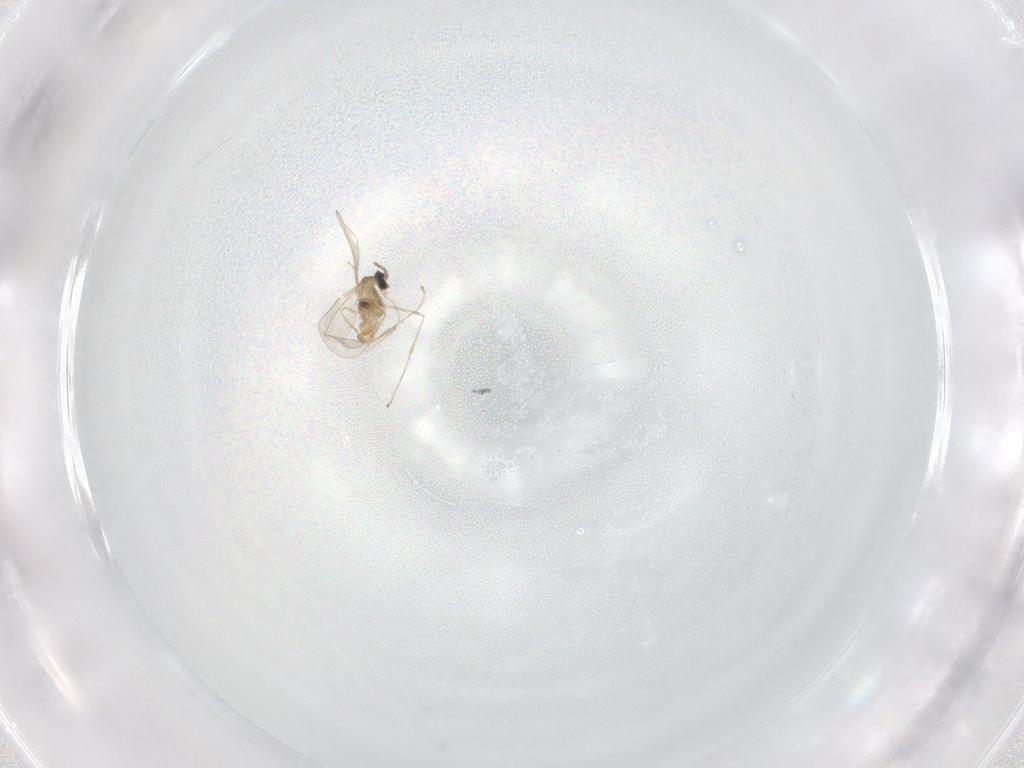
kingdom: Animalia
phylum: Arthropoda
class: Insecta
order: Diptera
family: Cecidomyiidae
